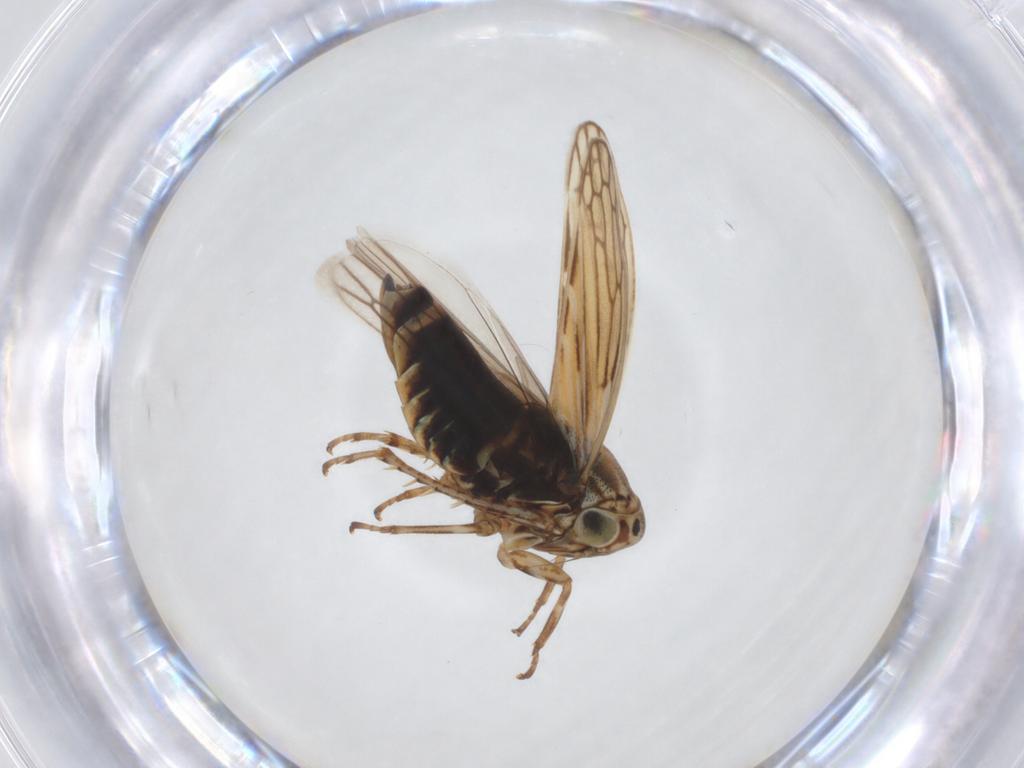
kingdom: Animalia
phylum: Arthropoda
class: Insecta
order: Hemiptera
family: Cicadellidae
